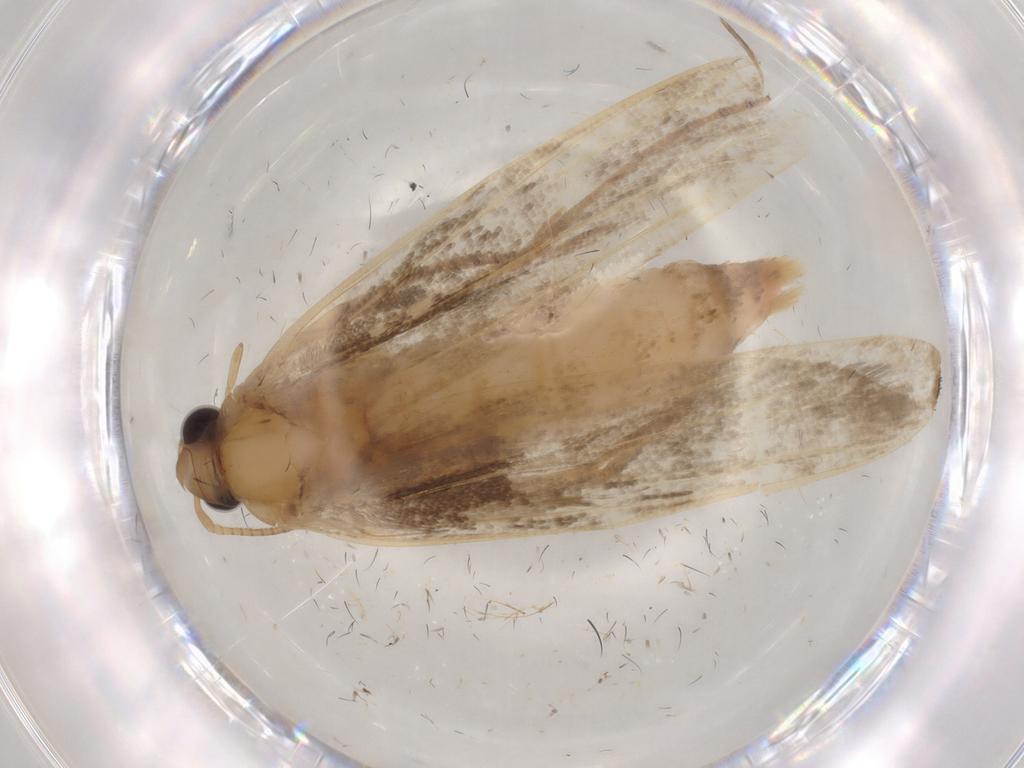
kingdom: Animalia
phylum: Arthropoda
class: Insecta
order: Lepidoptera
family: Yponomeutidae
